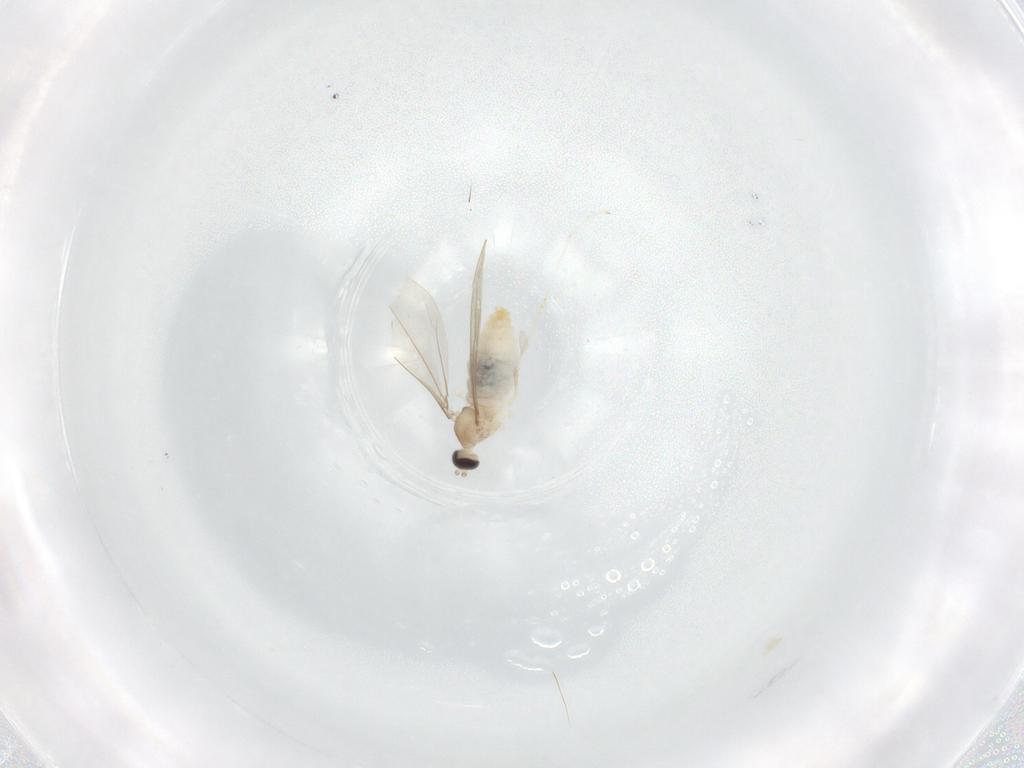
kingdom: Animalia
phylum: Arthropoda
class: Insecta
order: Diptera
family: Cecidomyiidae
